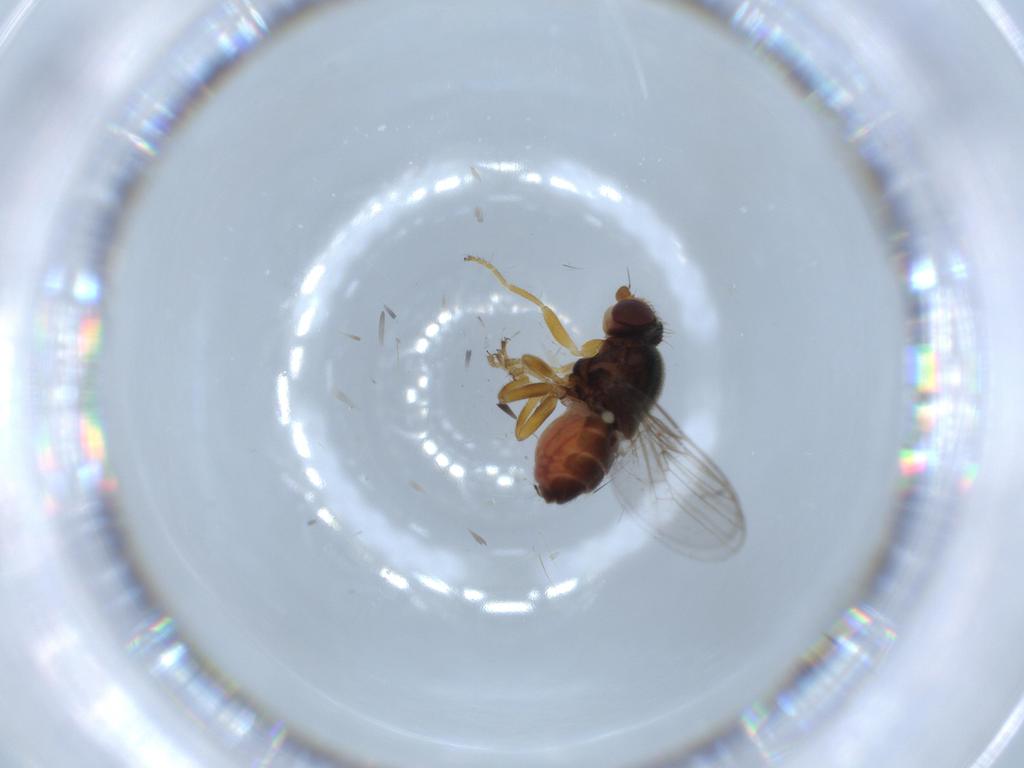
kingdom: Animalia
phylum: Arthropoda
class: Insecta
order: Diptera
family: Chloropidae
